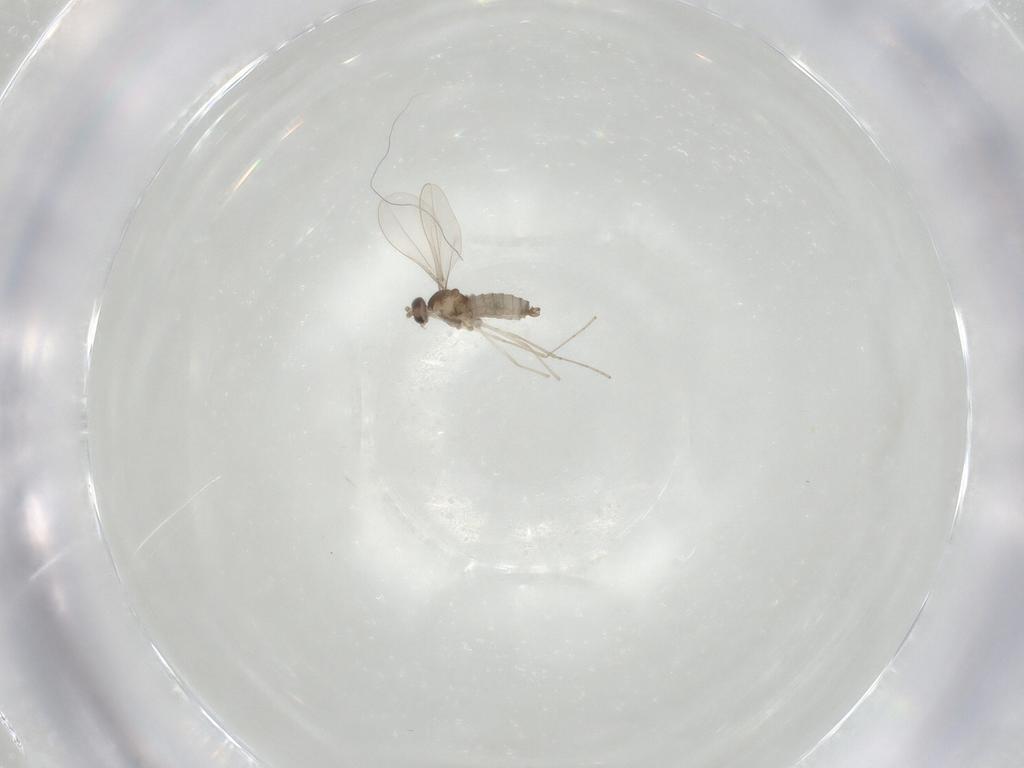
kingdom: Animalia
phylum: Arthropoda
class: Insecta
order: Diptera
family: Cecidomyiidae
